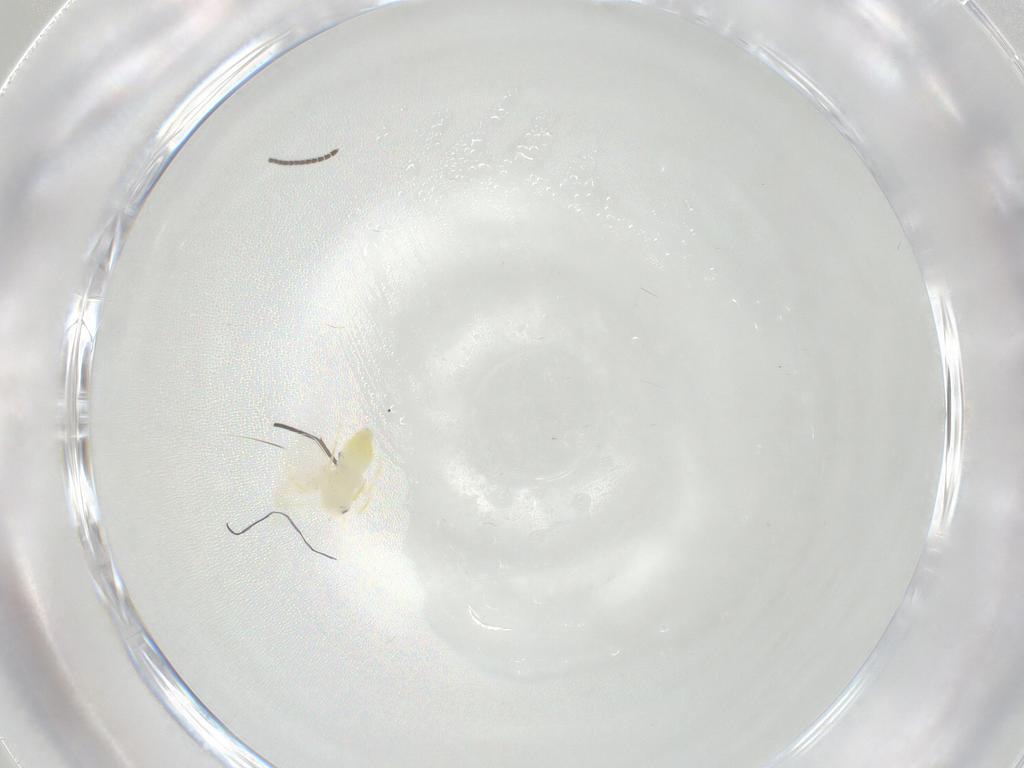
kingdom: Animalia
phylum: Arthropoda
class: Insecta
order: Hemiptera
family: Aleyrodidae
